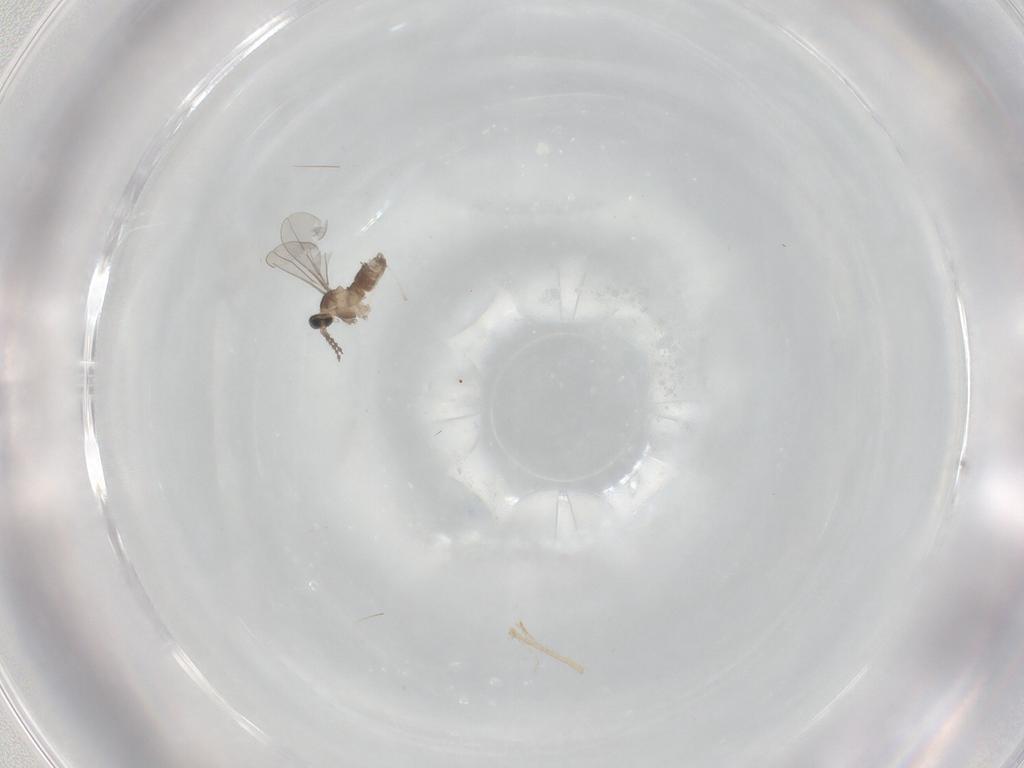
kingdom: Animalia
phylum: Arthropoda
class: Insecta
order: Diptera
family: Cecidomyiidae
